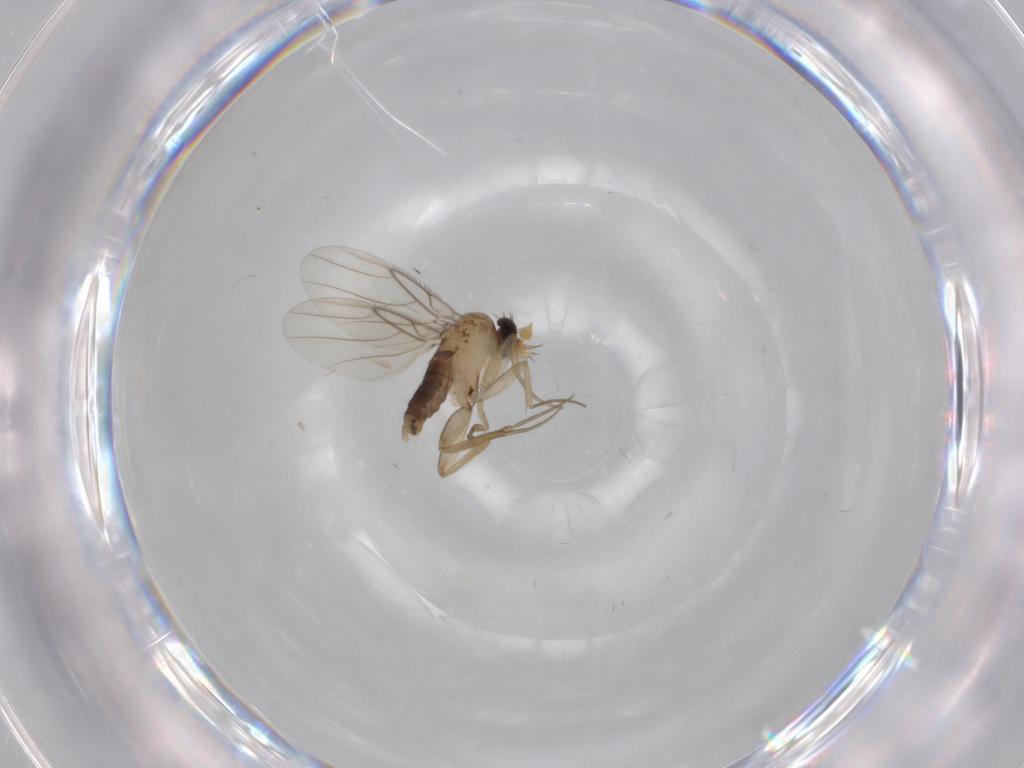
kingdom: Animalia
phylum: Arthropoda
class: Insecta
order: Diptera
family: Phoridae
